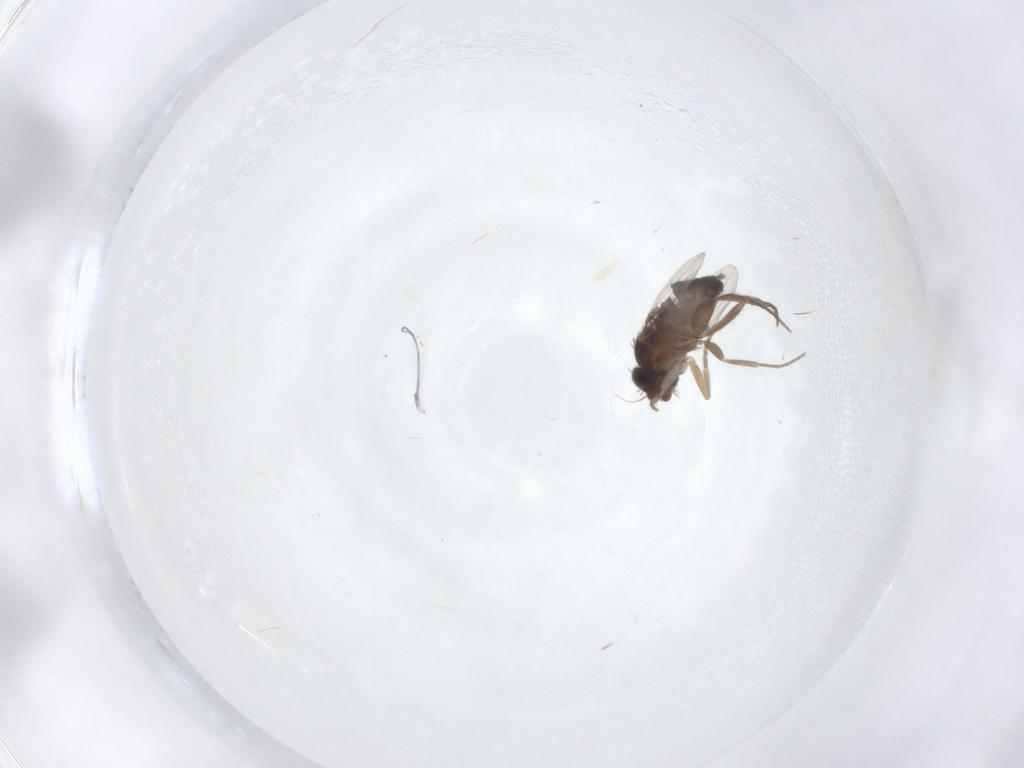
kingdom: Animalia
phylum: Arthropoda
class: Insecta
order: Diptera
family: Phoridae
